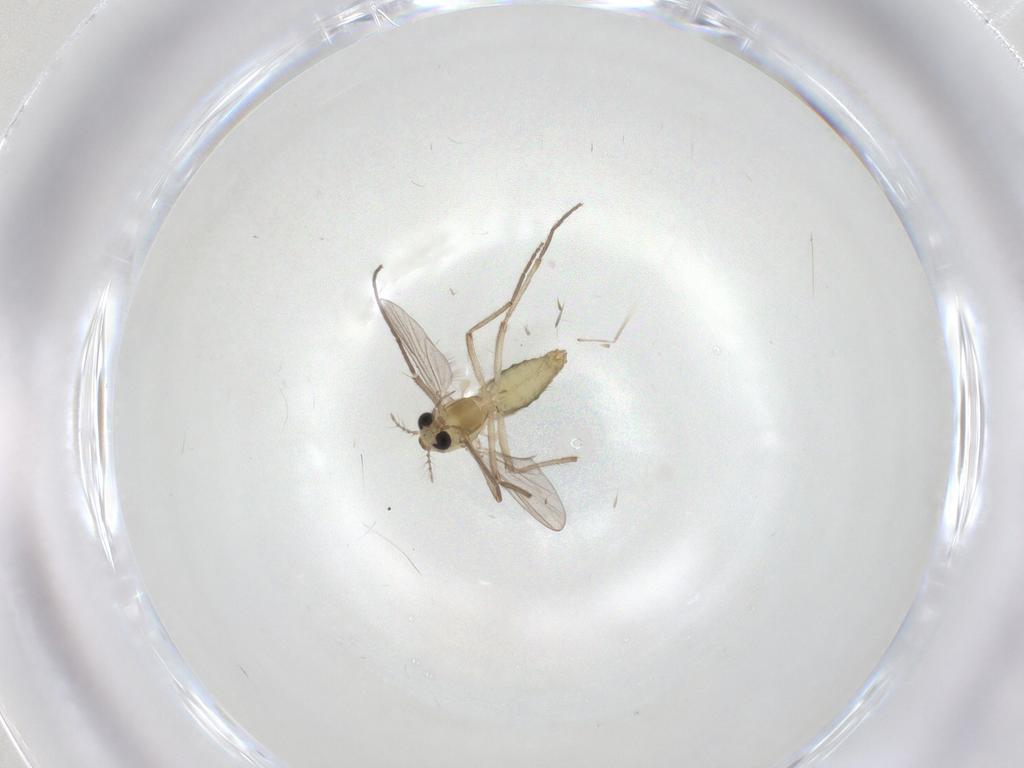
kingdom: Animalia
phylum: Arthropoda
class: Insecta
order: Diptera
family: Chironomidae
